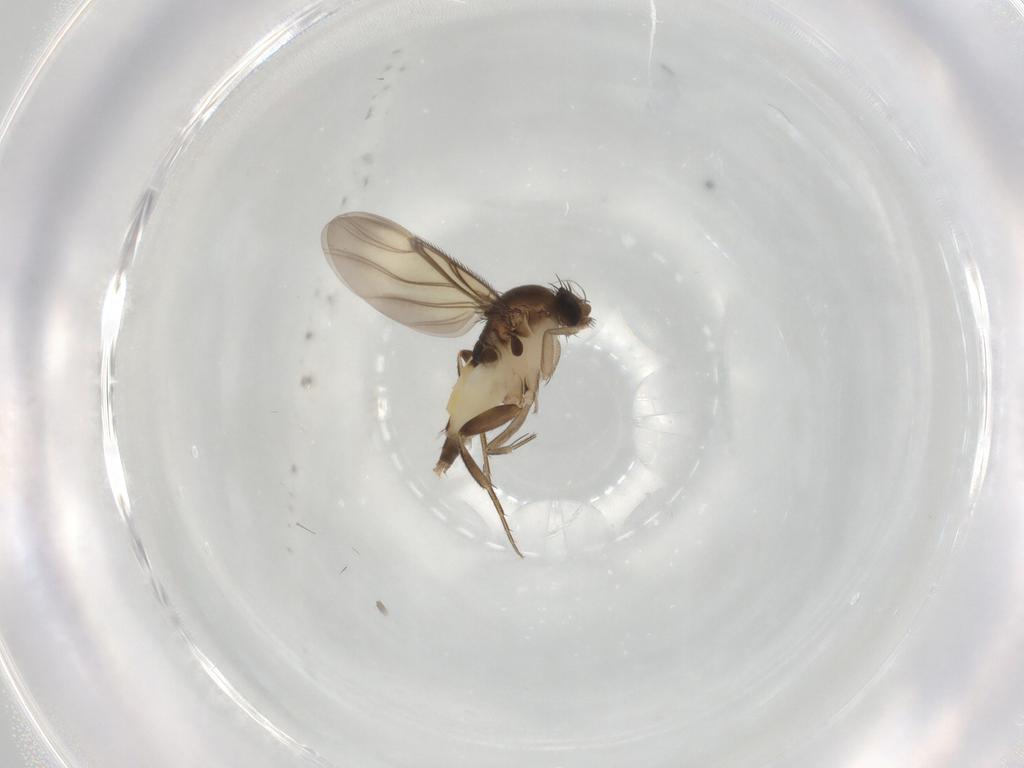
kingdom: Animalia
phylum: Arthropoda
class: Insecta
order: Diptera
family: Phoridae
